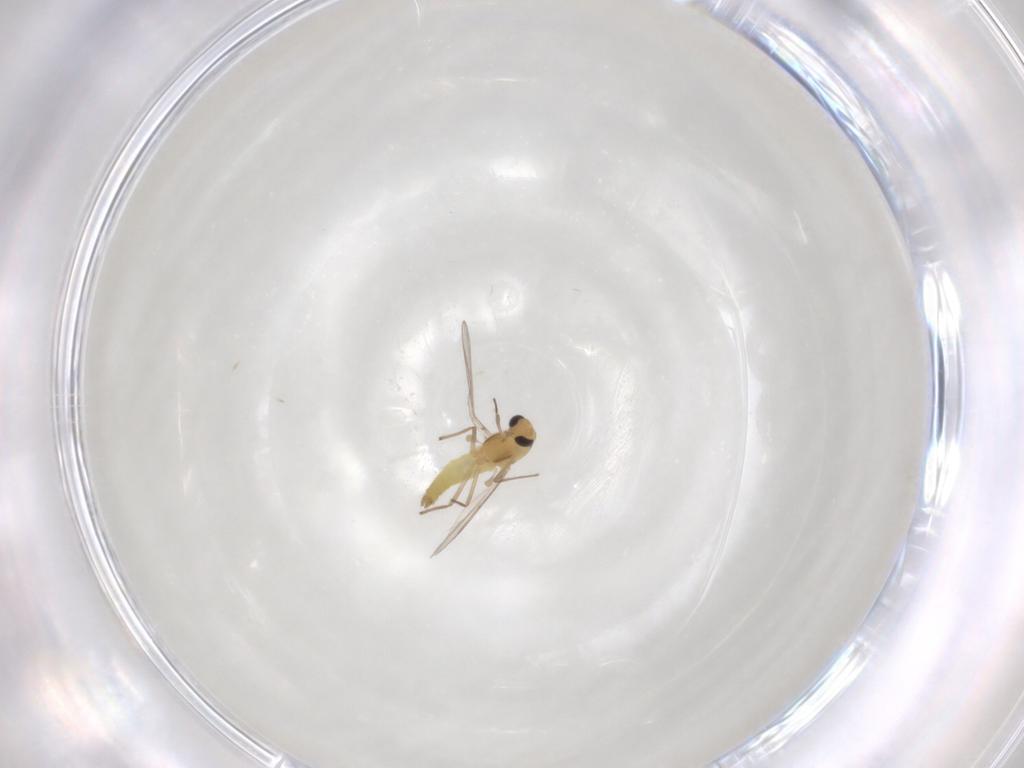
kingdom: Animalia
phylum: Arthropoda
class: Insecta
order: Diptera
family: Chironomidae
